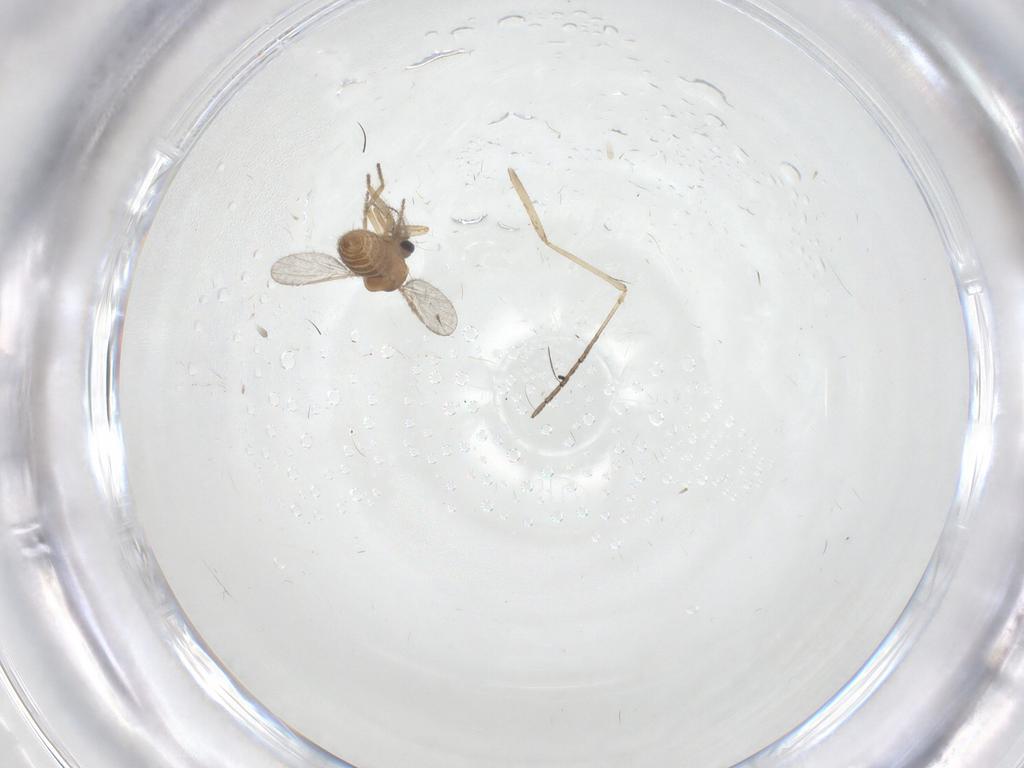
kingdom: Animalia
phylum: Arthropoda
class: Insecta
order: Diptera
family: Ceratopogonidae
